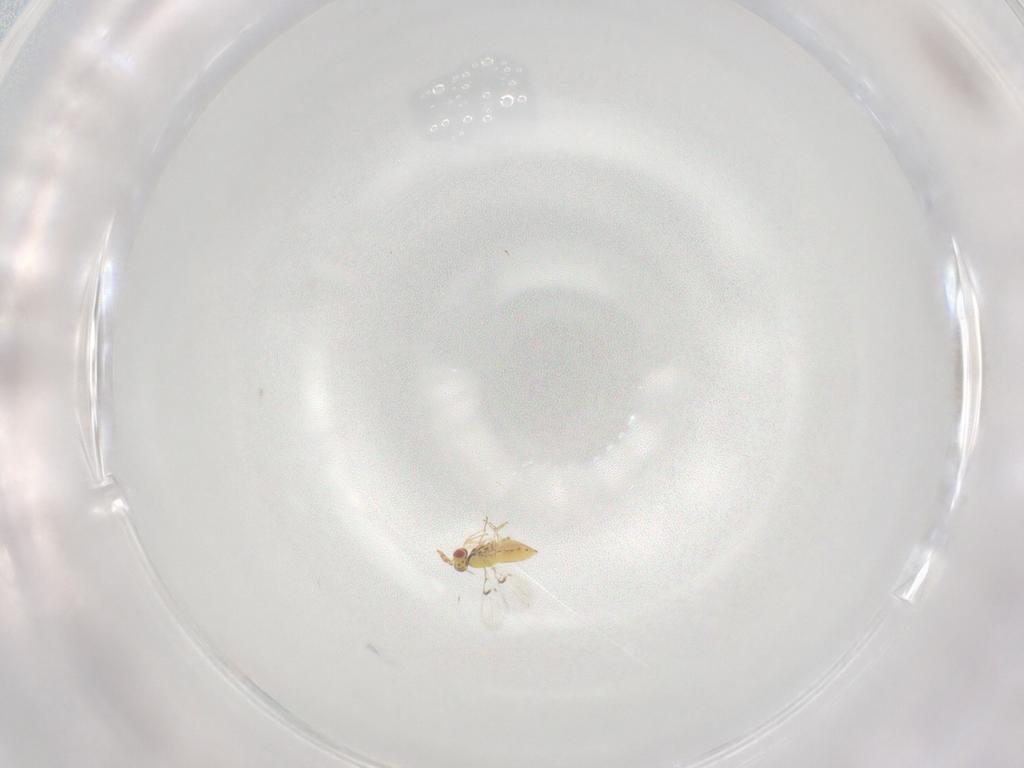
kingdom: Animalia
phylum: Arthropoda
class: Insecta
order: Hymenoptera
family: Trichogrammatidae
